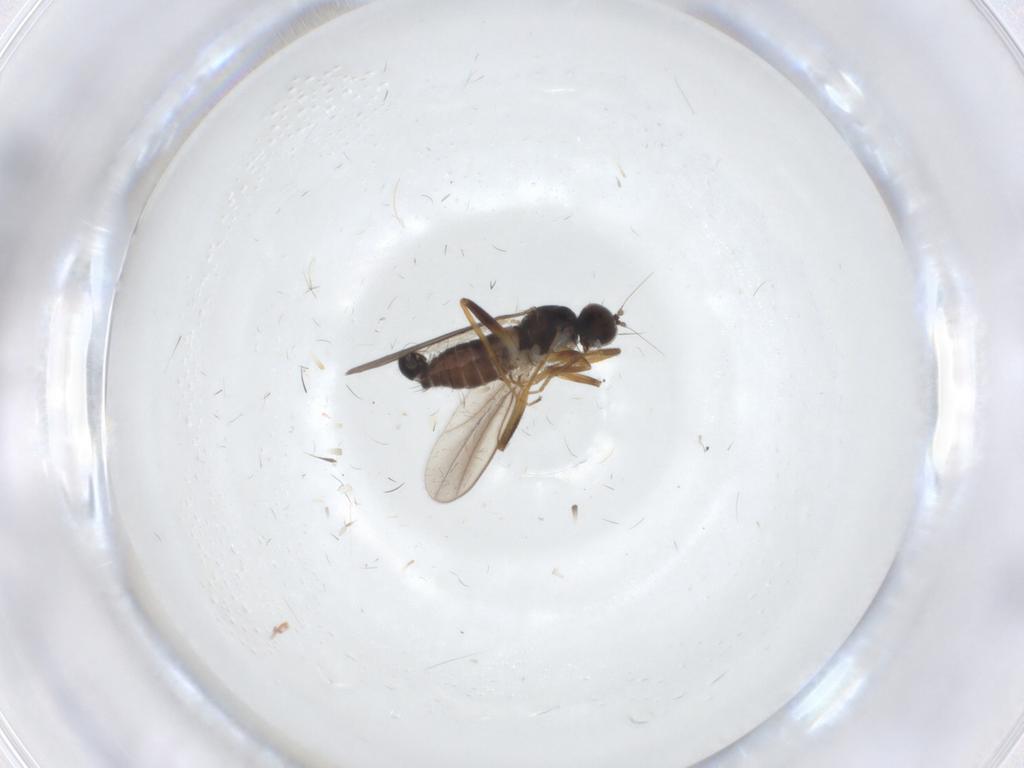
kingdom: Animalia
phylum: Arthropoda
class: Insecta
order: Diptera
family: Hybotidae
